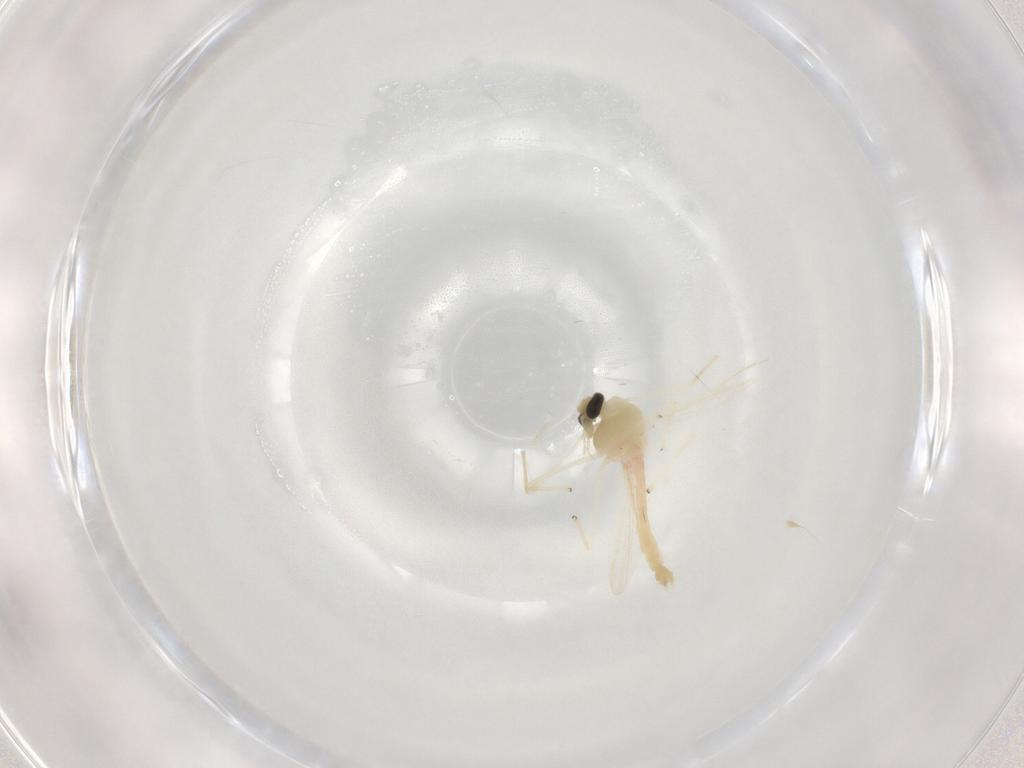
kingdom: Animalia
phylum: Arthropoda
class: Insecta
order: Diptera
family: Chironomidae
